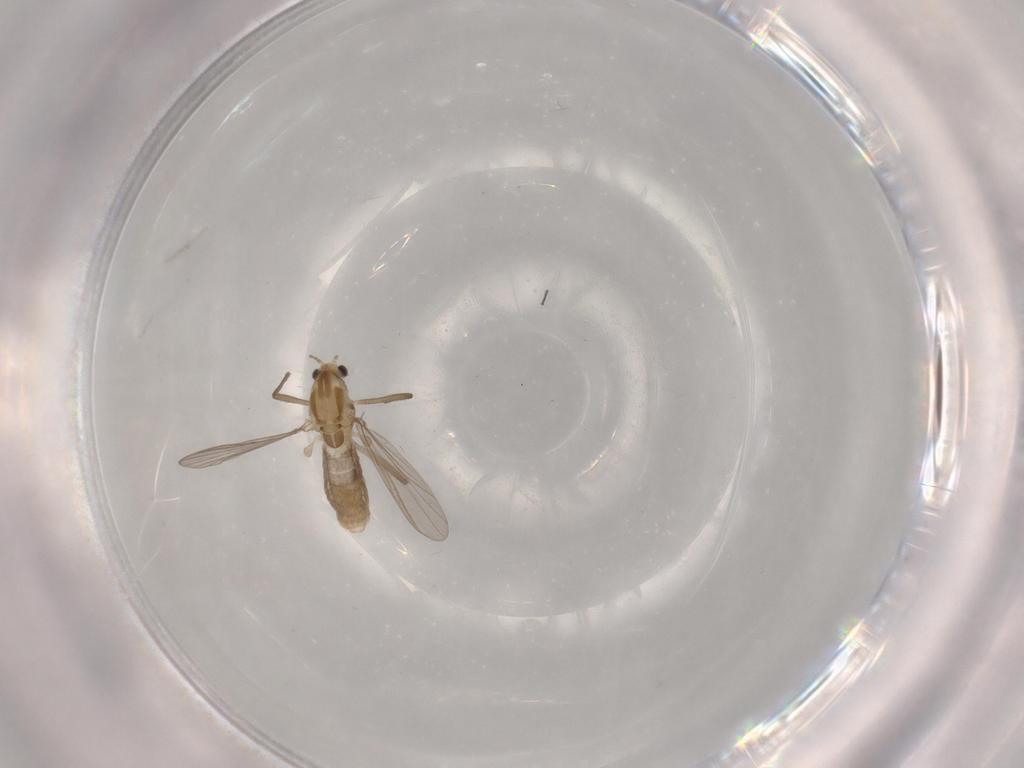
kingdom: Animalia
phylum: Arthropoda
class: Insecta
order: Diptera
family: Chironomidae
